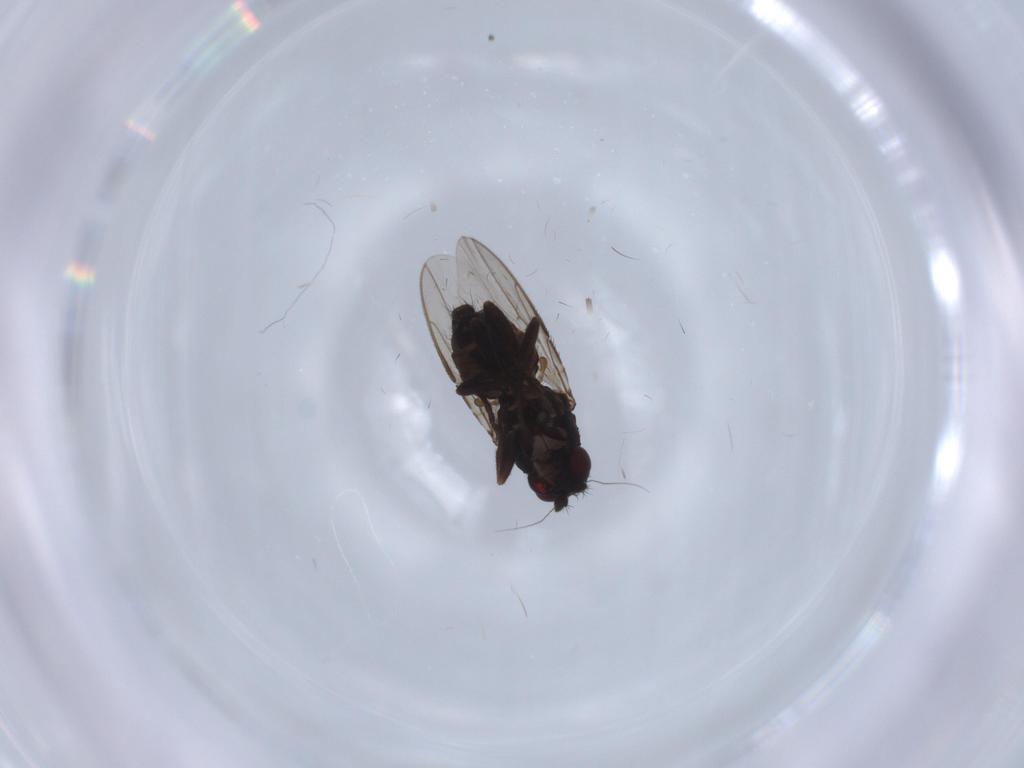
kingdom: Animalia
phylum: Arthropoda
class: Insecta
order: Diptera
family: Sphaeroceridae
